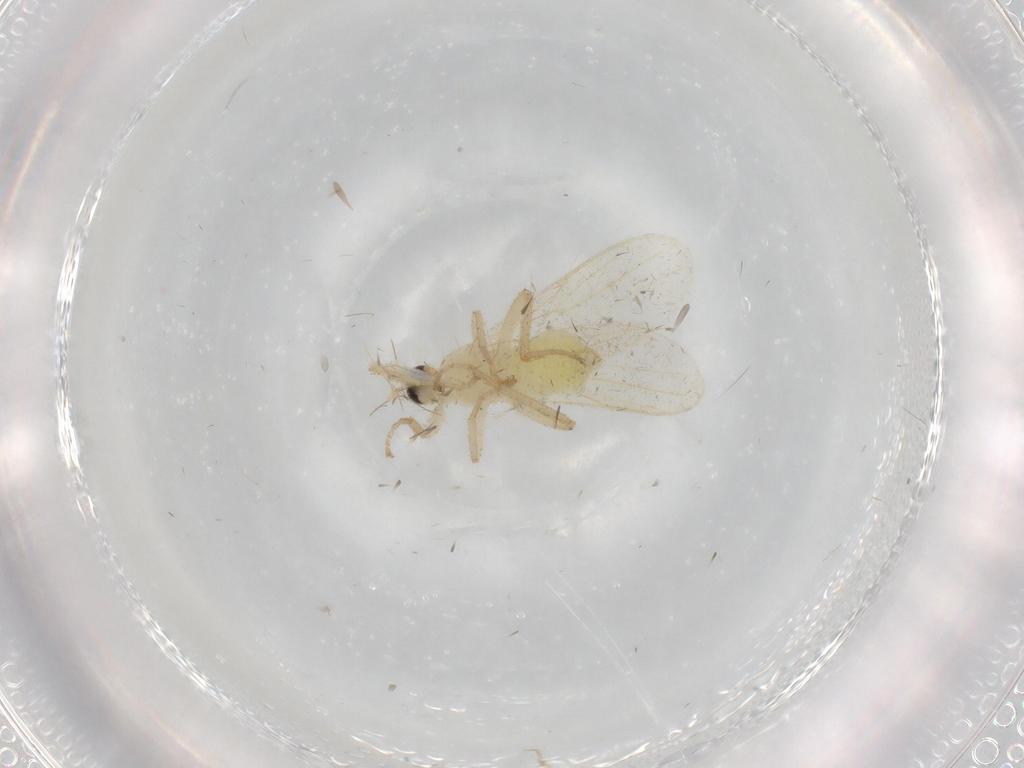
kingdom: Animalia
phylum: Arthropoda
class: Insecta
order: Diptera
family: Hybotidae
